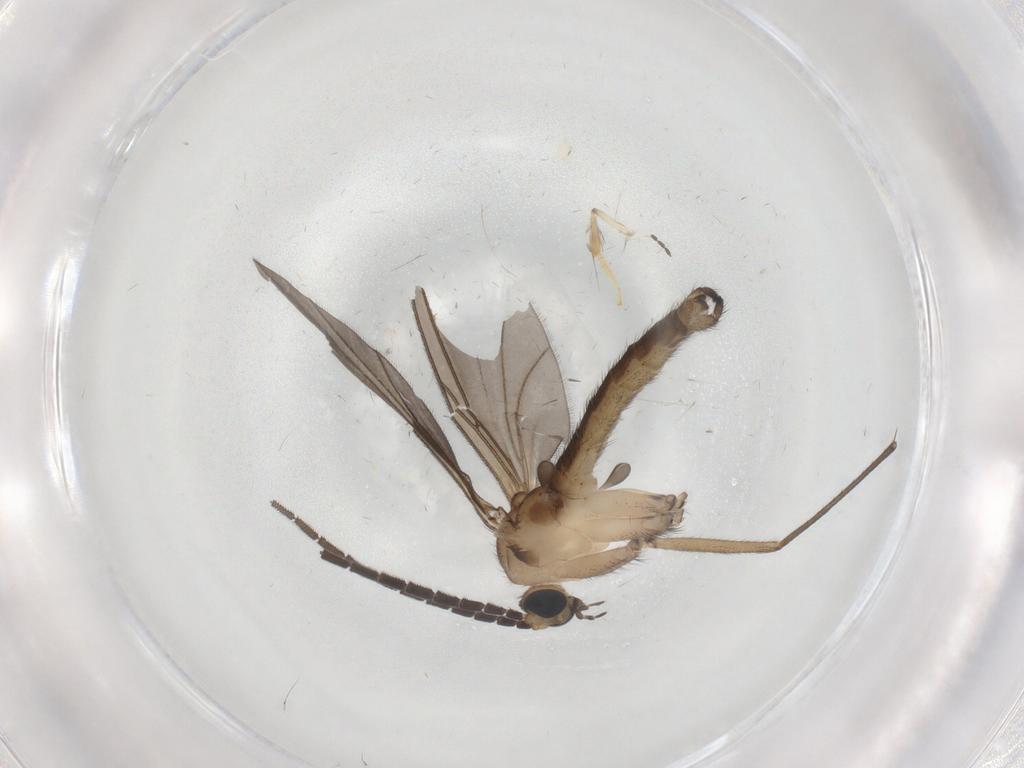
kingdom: Animalia
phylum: Arthropoda
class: Insecta
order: Diptera
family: Psychodidae
